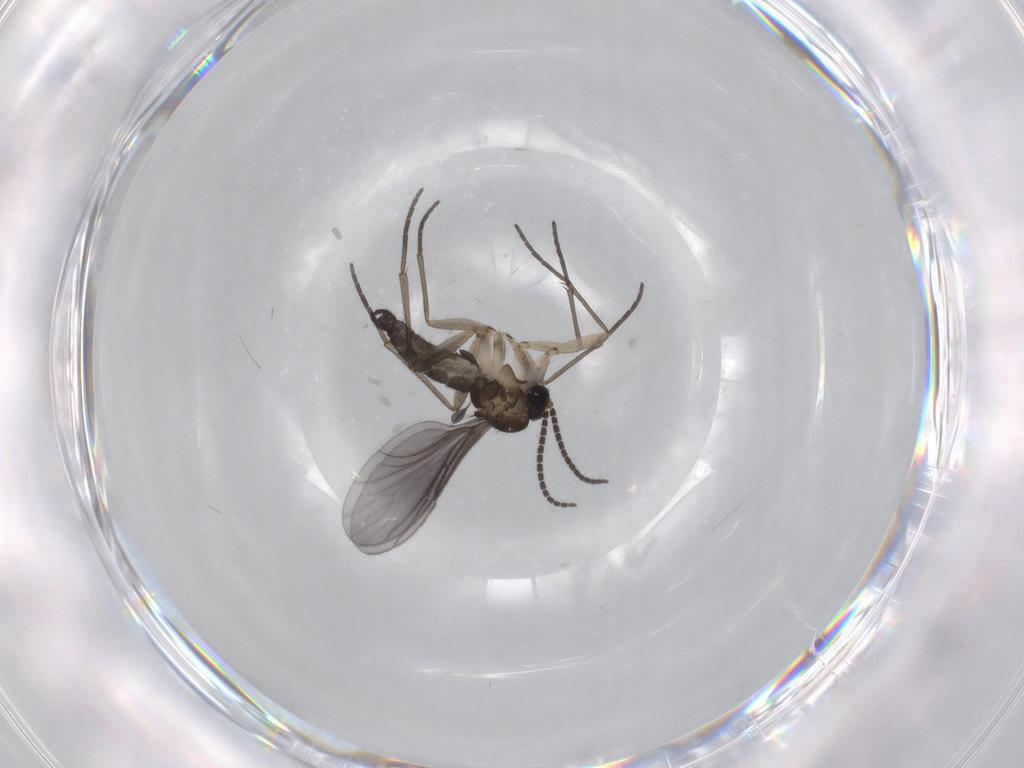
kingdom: Animalia
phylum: Arthropoda
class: Insecta
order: Diptera
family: Sciaridae
